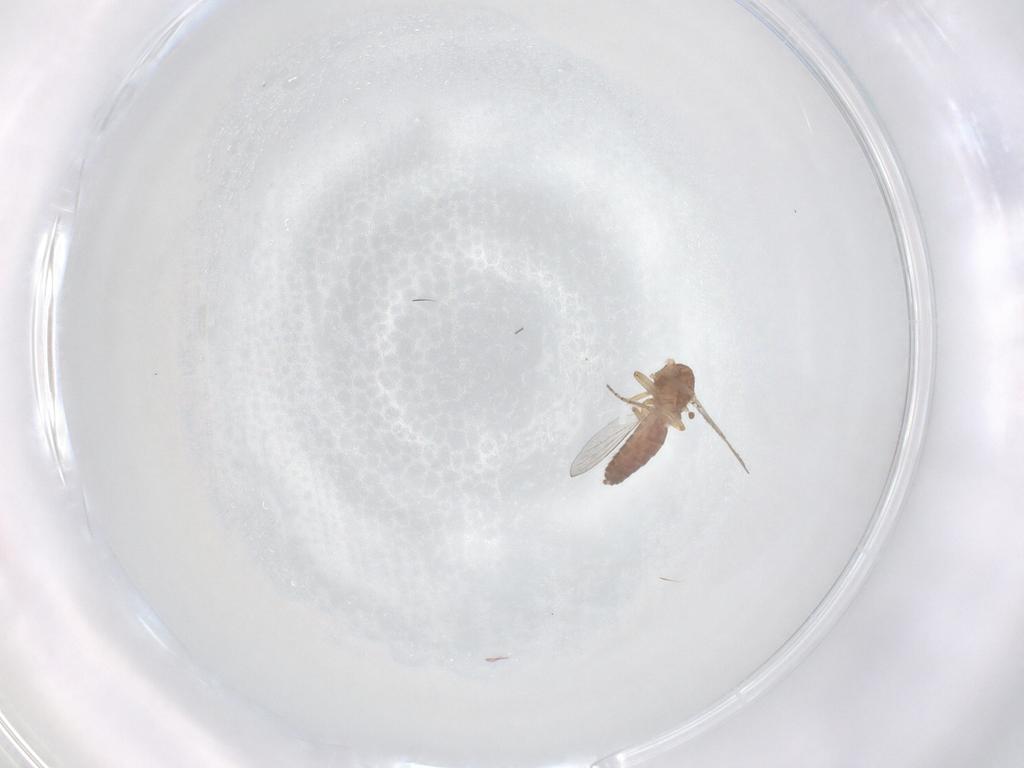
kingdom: Animalia
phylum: Arthropoda
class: Insecta
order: Diptera
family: Ceratopogonidae
